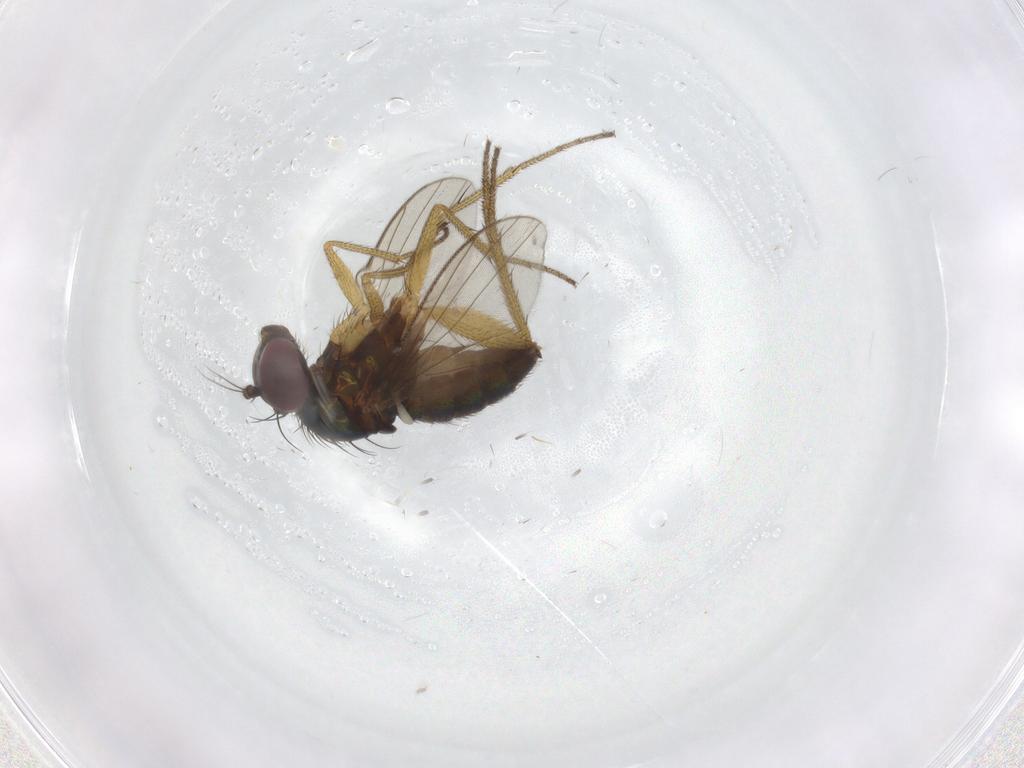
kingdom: Animalia
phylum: Arthropoda
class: Insecta
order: Diptera
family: Chironomidae
